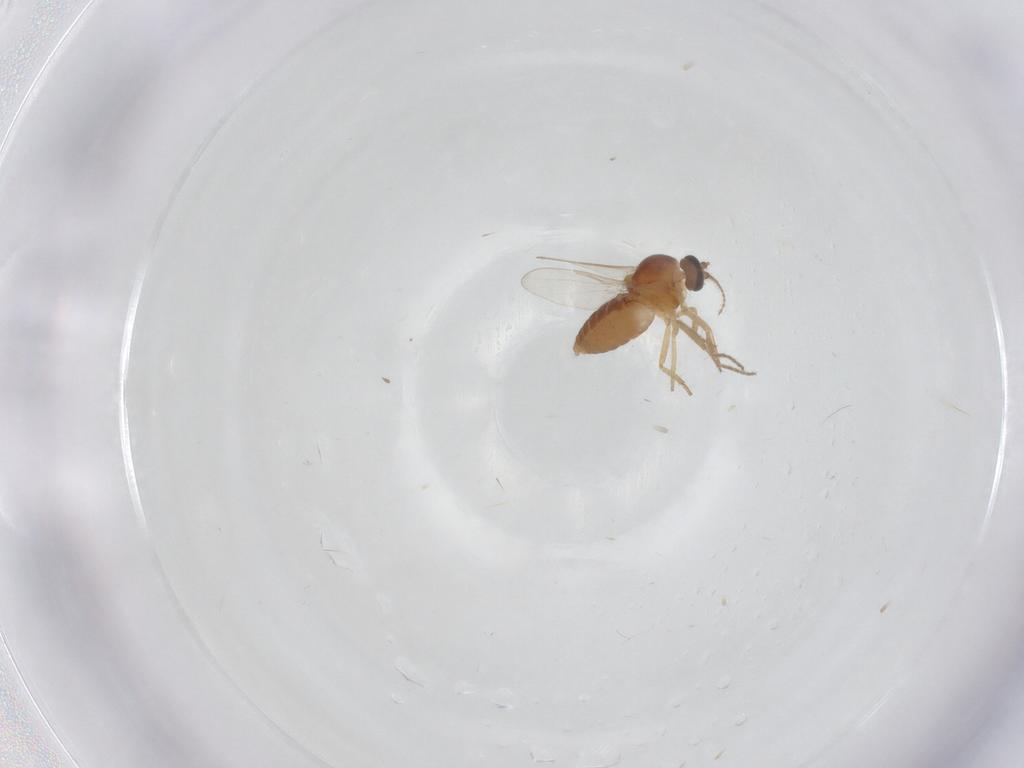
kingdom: Animalia
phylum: Arthropoda
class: Insecta
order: Diptera
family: Ceratopogonidae
